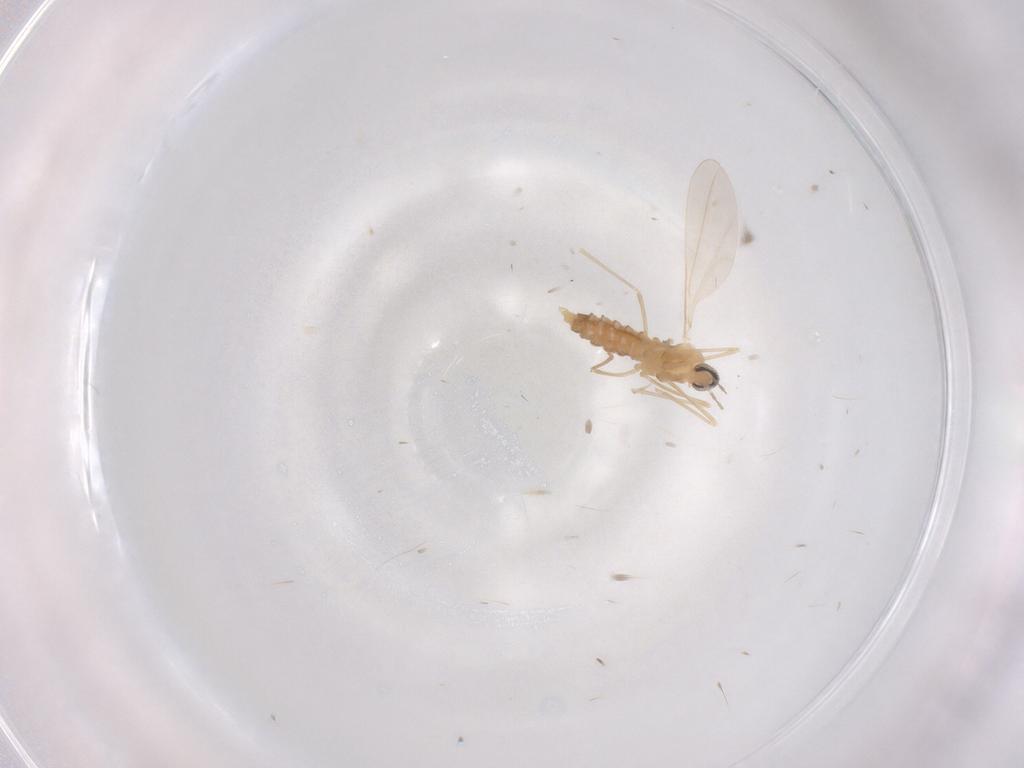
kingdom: Animalia
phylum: Arthropoda
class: Insecta
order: Diptera
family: Cecidomyiidae
